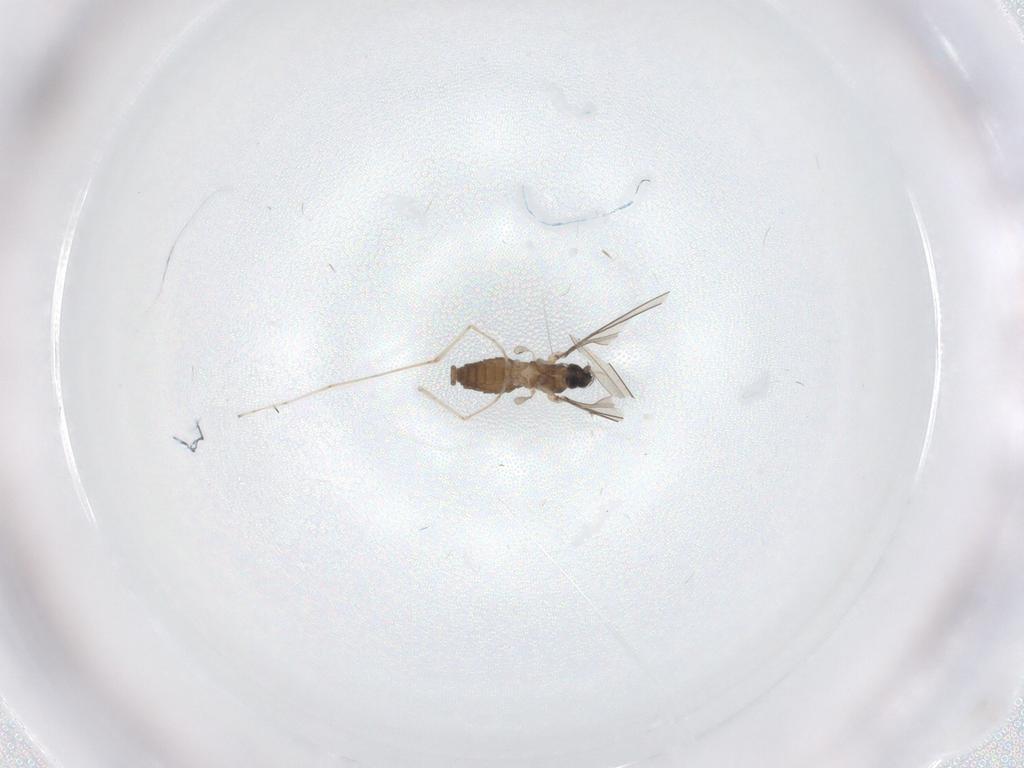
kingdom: Animalia
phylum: Arthropoda
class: Insecta
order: Diptera
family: Cecidomyiidae
